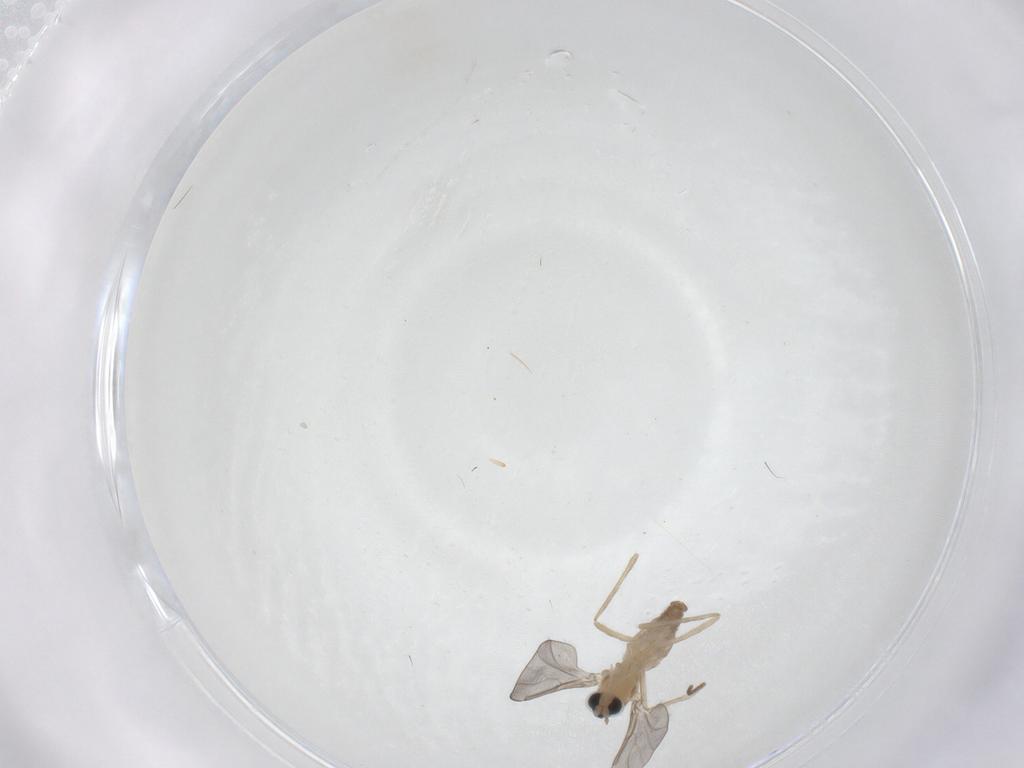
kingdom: Animalia
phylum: Arthropoda
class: Insecta
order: Diptera
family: Cecidomyiidae
